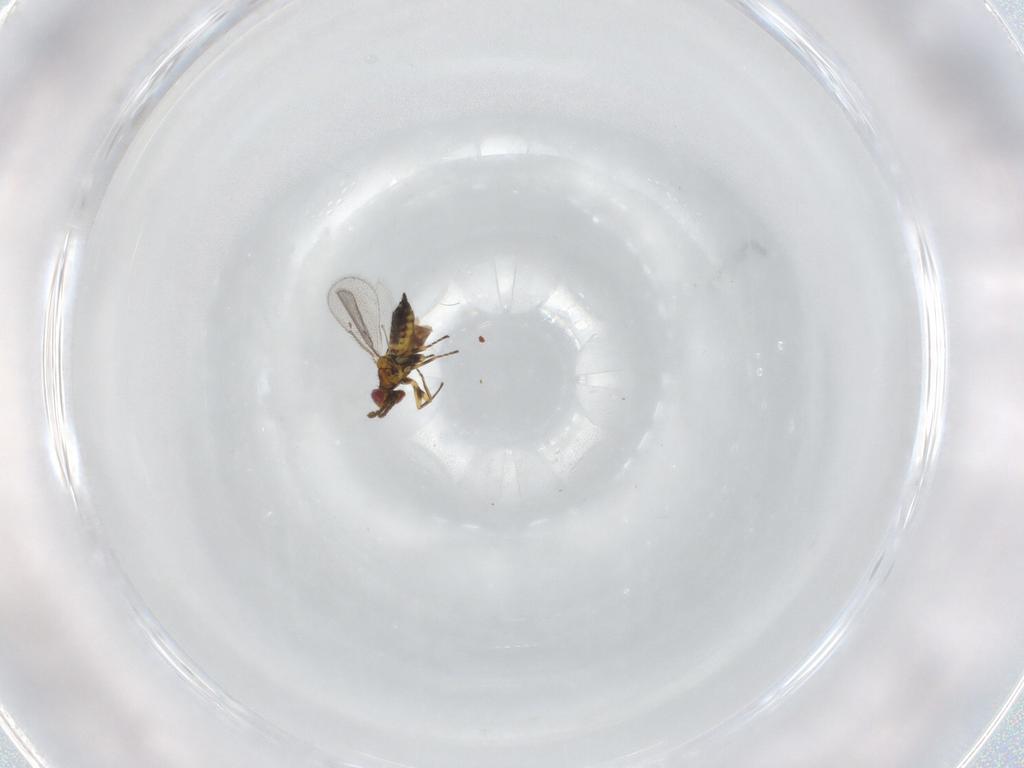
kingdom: Animalia
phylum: Arthropoda
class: Insecta
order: Hymenoptera
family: Eulophidae
